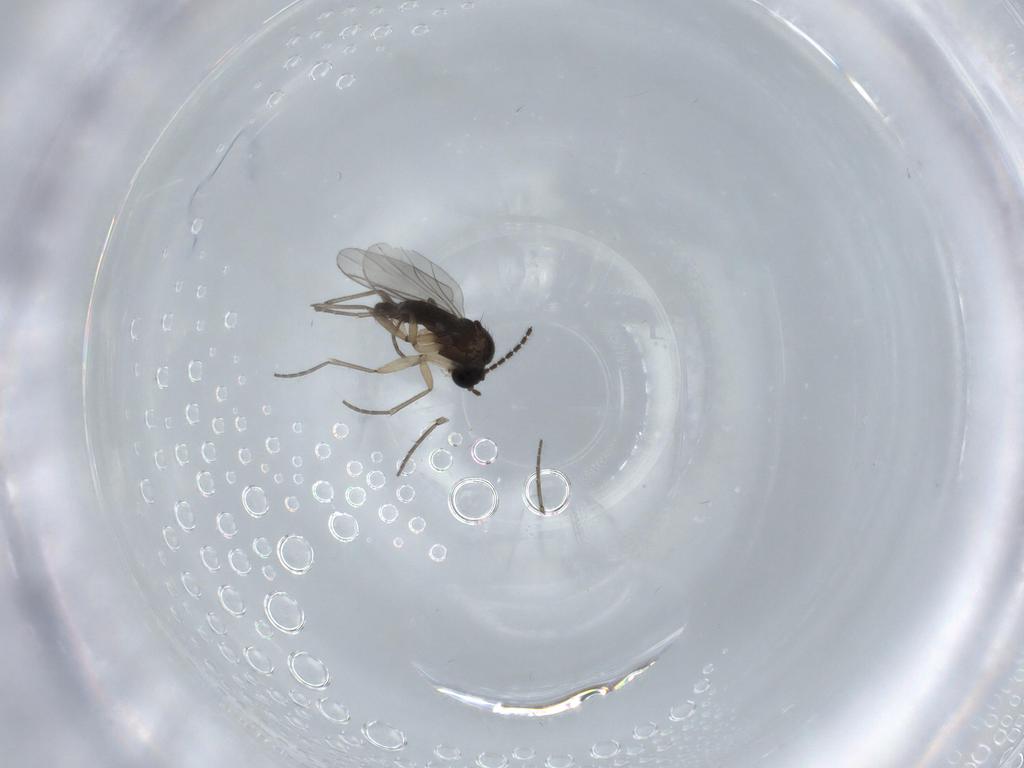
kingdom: Animalia
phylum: Arthropoda
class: Insecta
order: Diptera
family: Sciaridae
